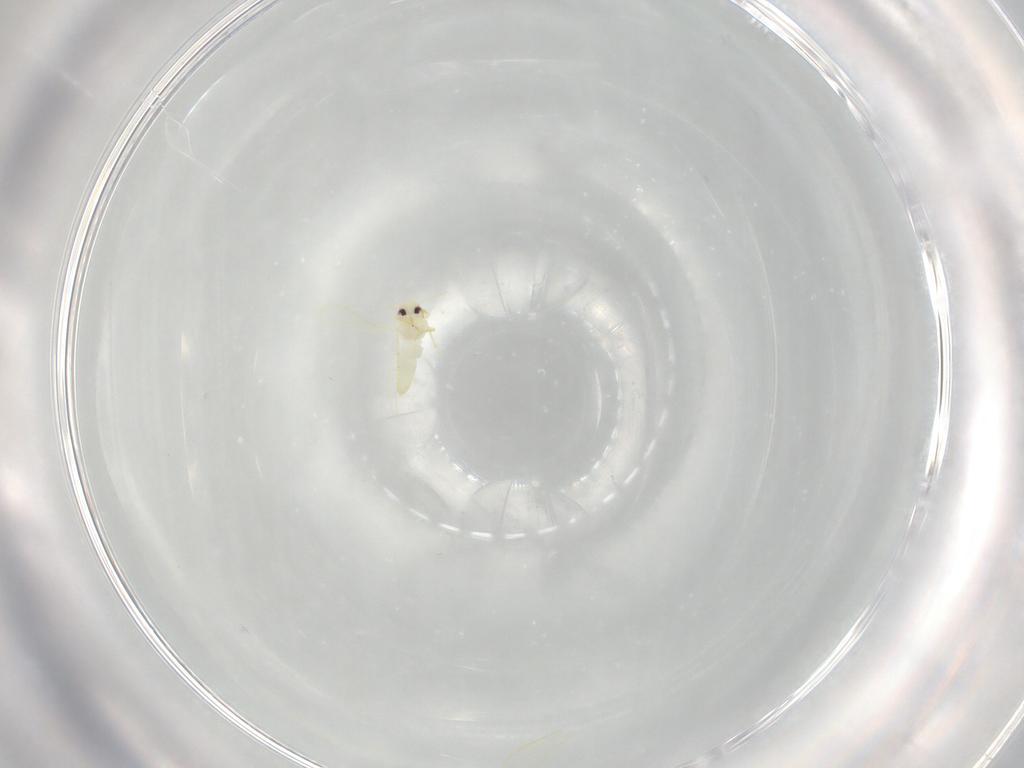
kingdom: Animalia
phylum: Arthropoda
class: Insecta
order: Hemiptera
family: Aleyrodidae
